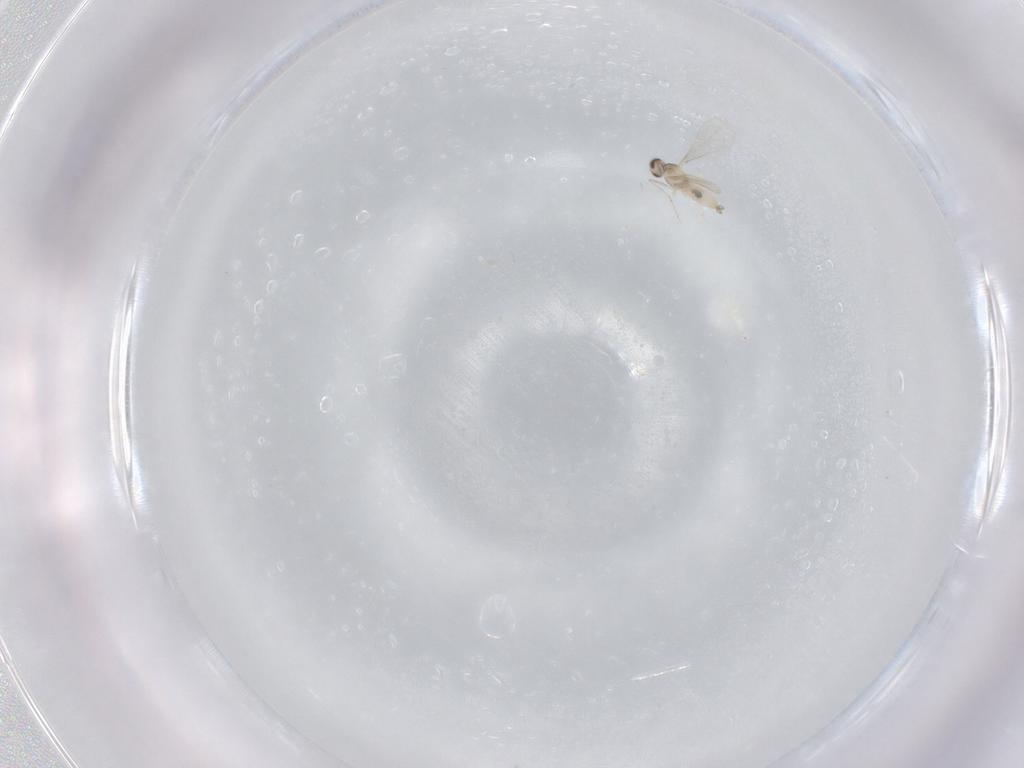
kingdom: Animalia
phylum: Arthropoda
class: Insecta
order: Diptera
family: Cecidomyiidae
